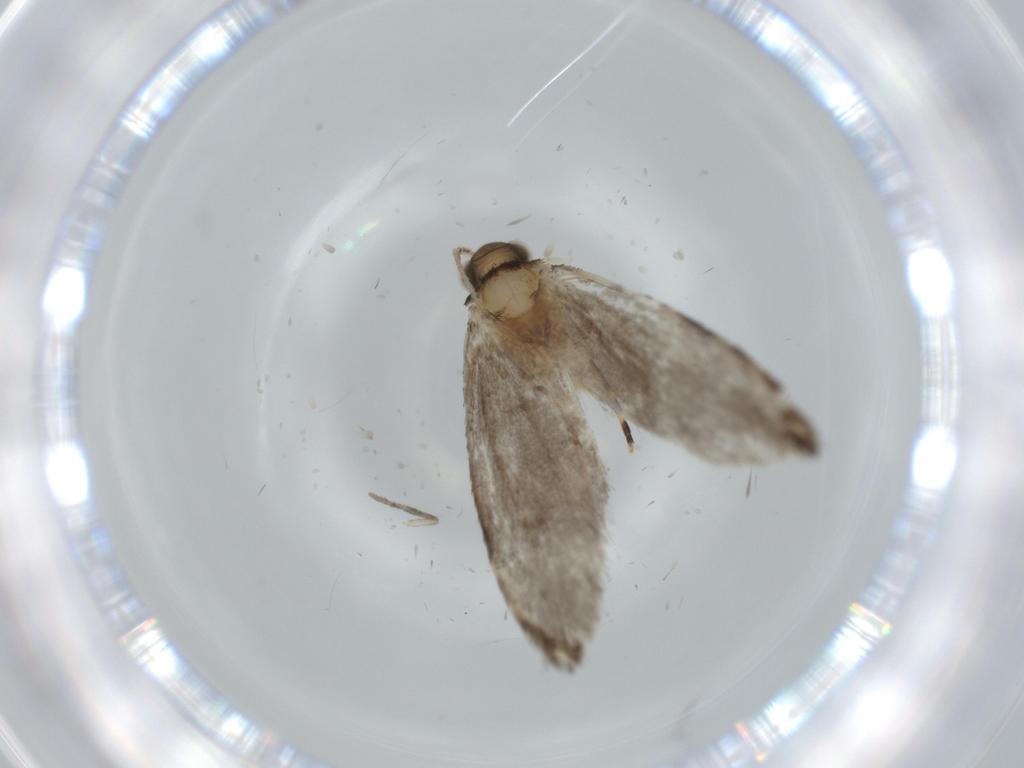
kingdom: Animalia
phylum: Arthropoda
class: Insecta
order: Lepidoptera
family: Tineidae
